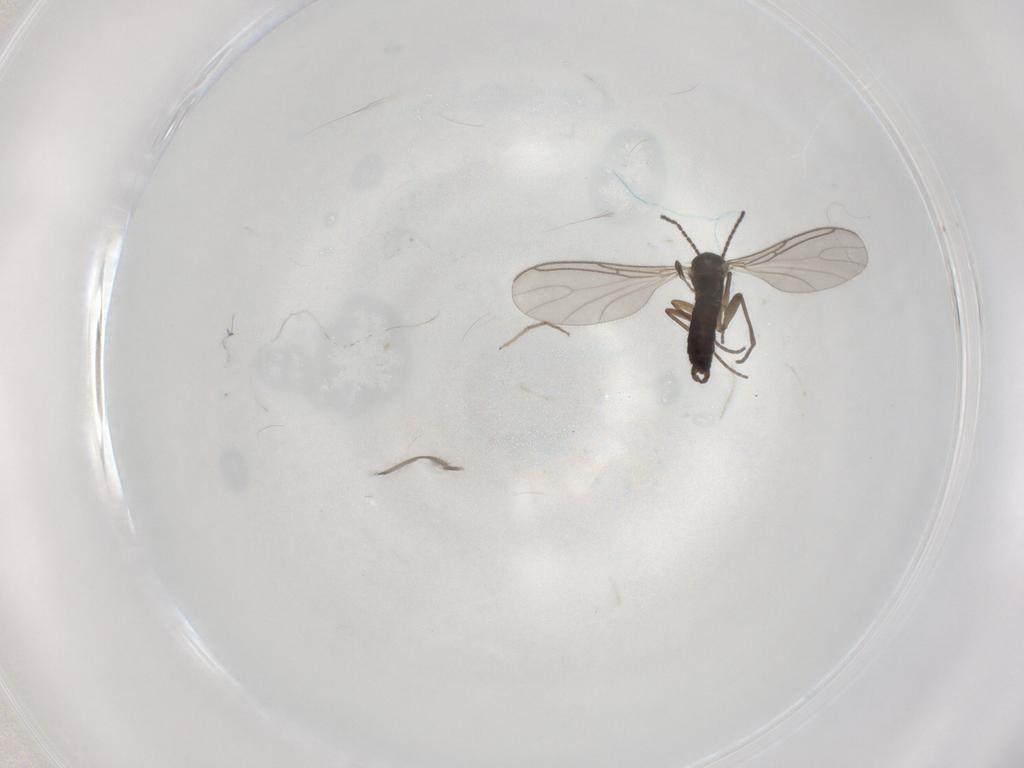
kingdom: Animalia
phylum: Arthropoda
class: Insecta
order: Diptera
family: Sciaridae
